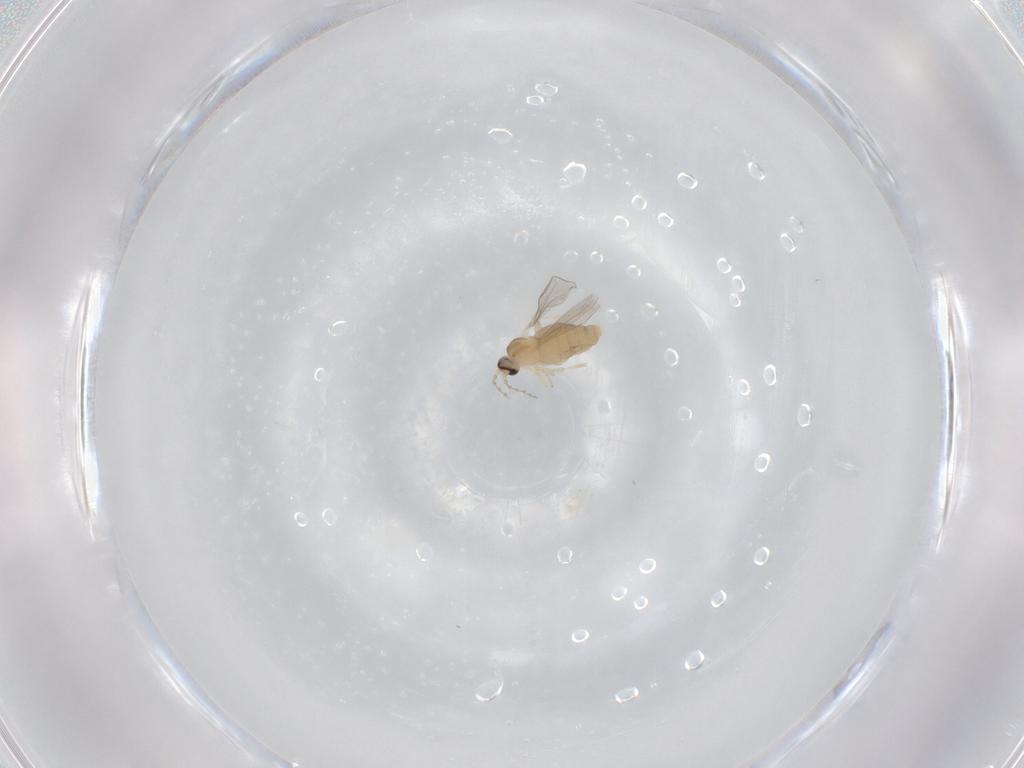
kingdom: Animalia
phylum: Arthropoda
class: Insecta
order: Diptera
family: Cecidomyiidae
